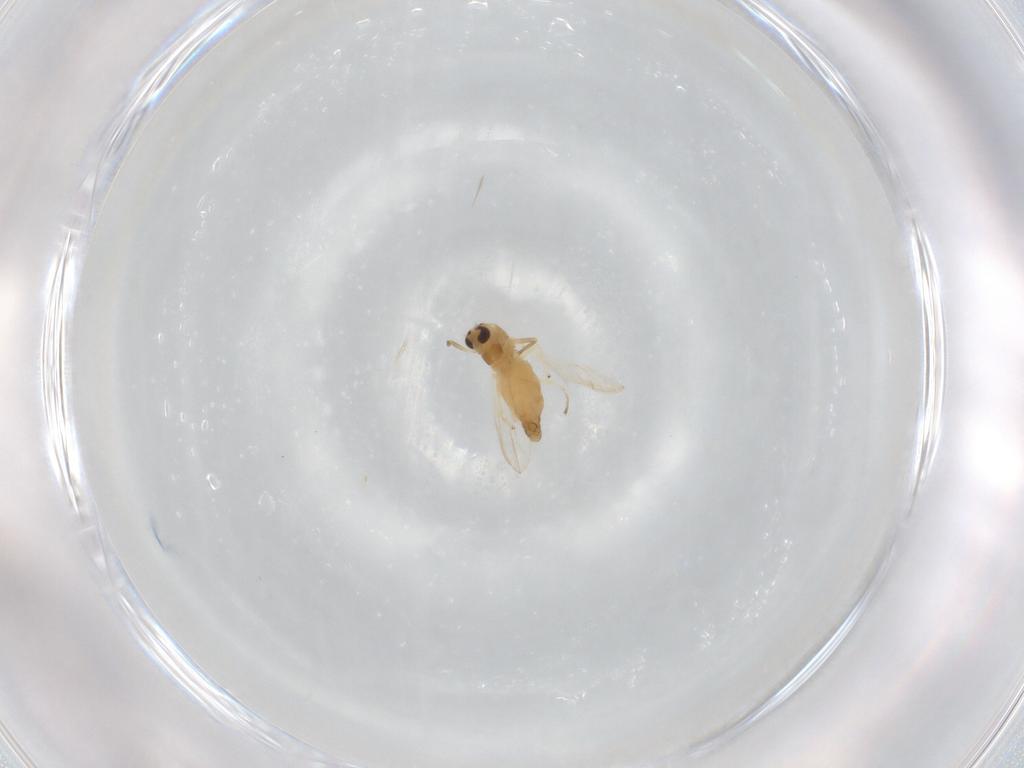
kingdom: Animalia
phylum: Arthropoda
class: Insecta
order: Diptera
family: Chironomidae
